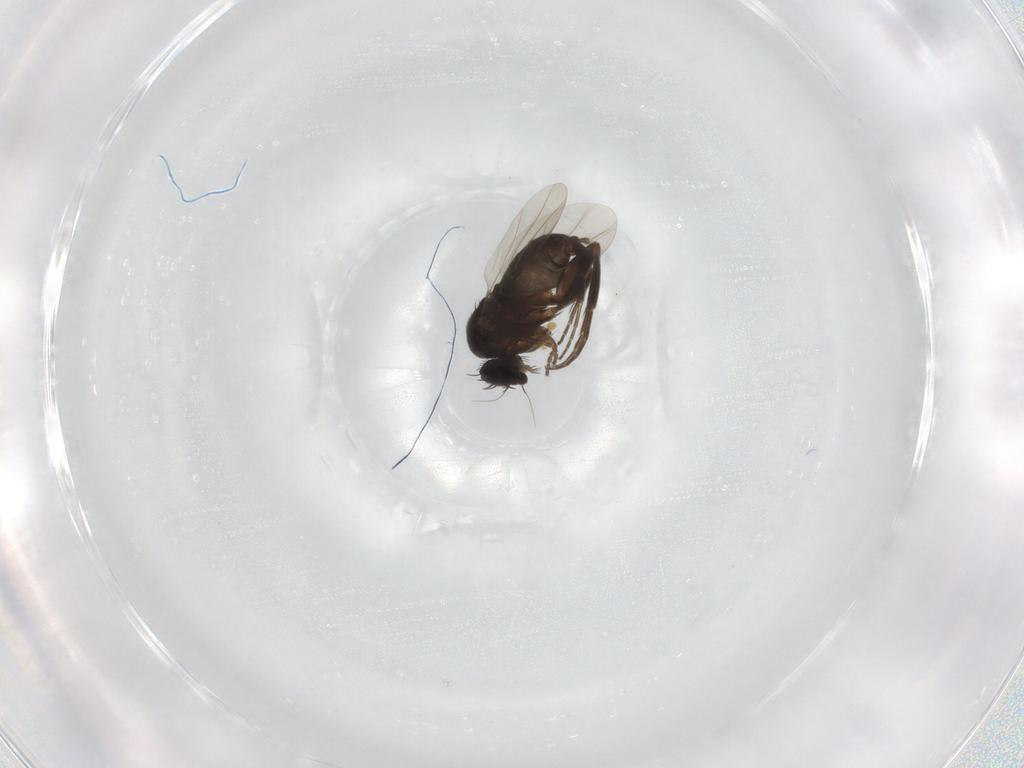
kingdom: Animalia
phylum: Arthropoda
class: Insecta
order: Diptera
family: Phoridae
